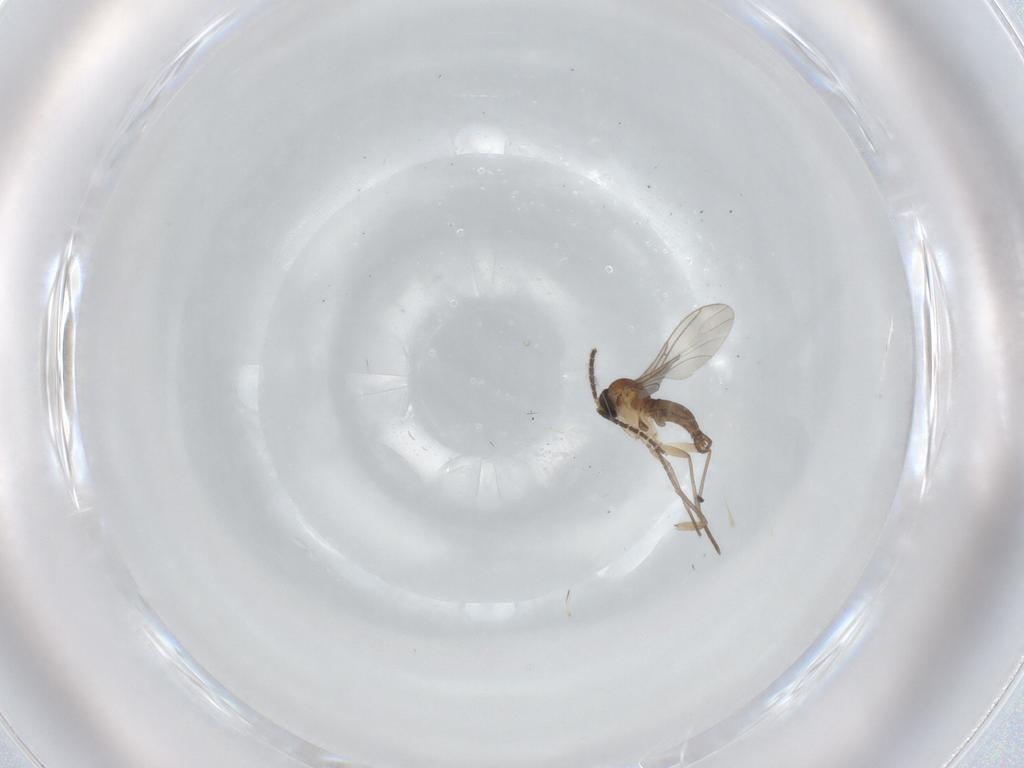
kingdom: Animalia
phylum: Arthropoda
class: Insecta
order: Diptera
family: Sciaridae
